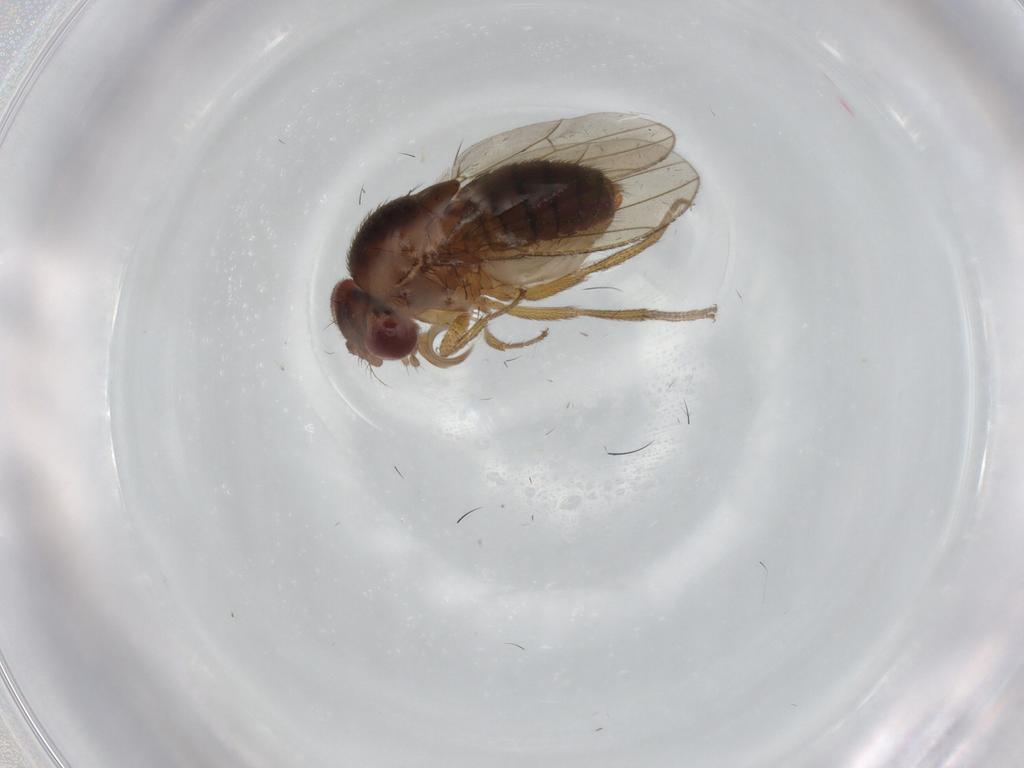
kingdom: Animalia
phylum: Arthropoda
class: Insecta
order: Diptera
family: Drosophilidae
